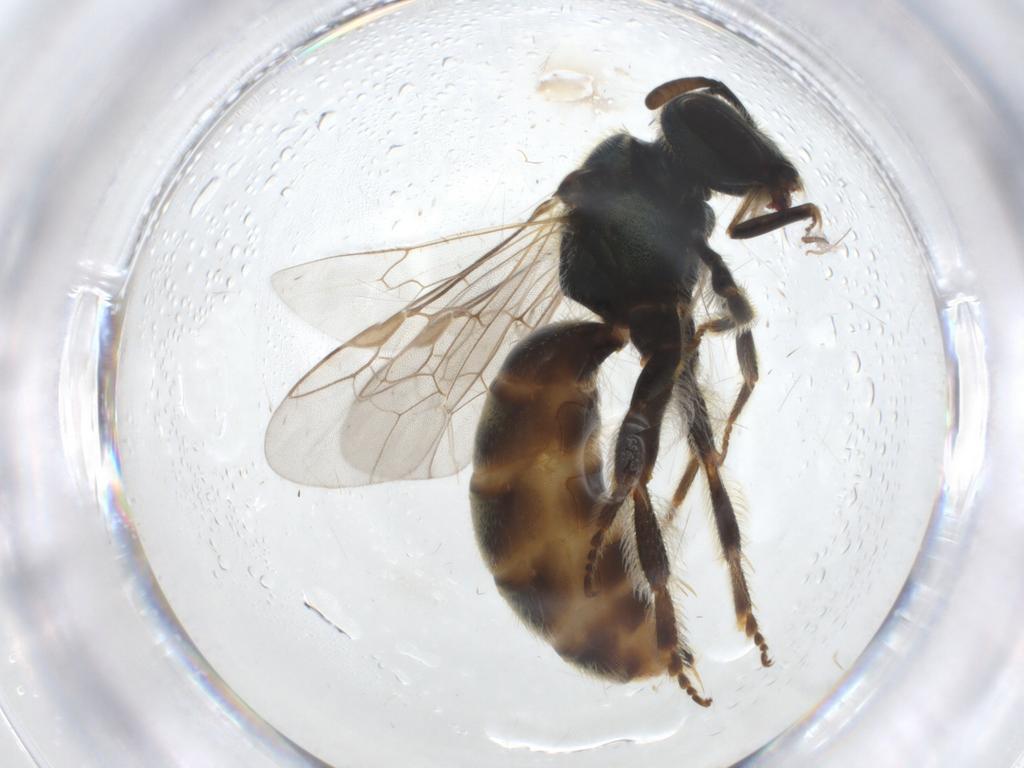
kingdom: Animalia
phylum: Arthropoda
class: Insecta
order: Hymenoptera
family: Halictidae
